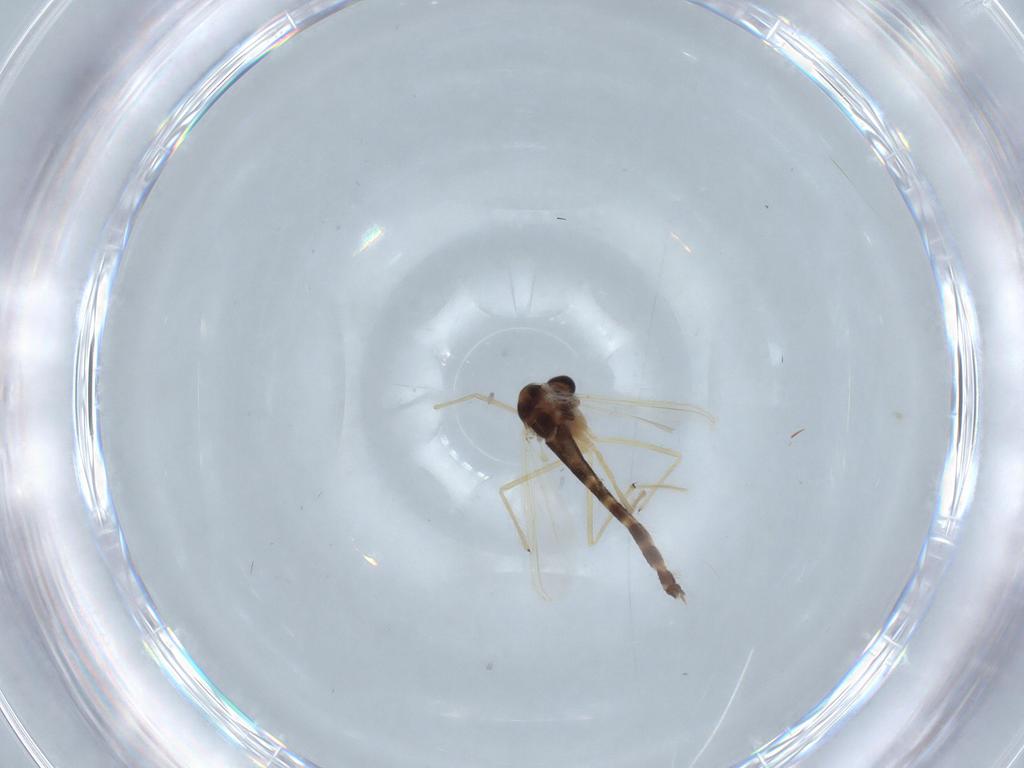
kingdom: Animalia
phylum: Arthropoda
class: Insecta
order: Diptera
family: Chironomidae
